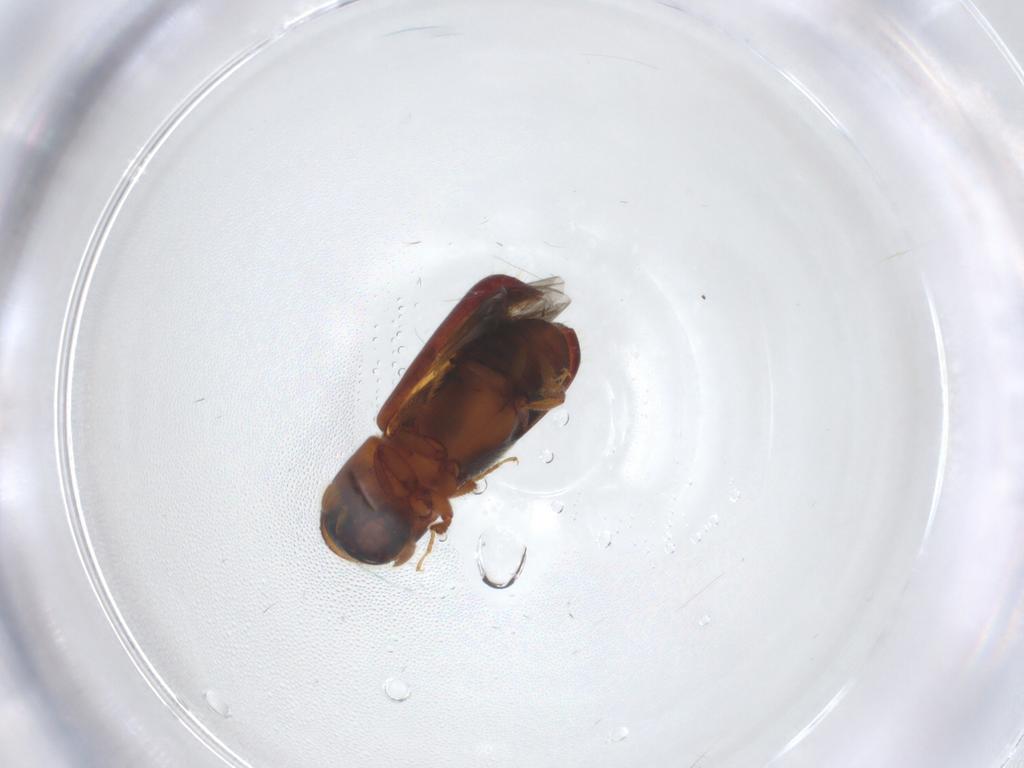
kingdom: Animalia
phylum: Arthropoda
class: Insecta
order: Coleoptera
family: Curculionidae
